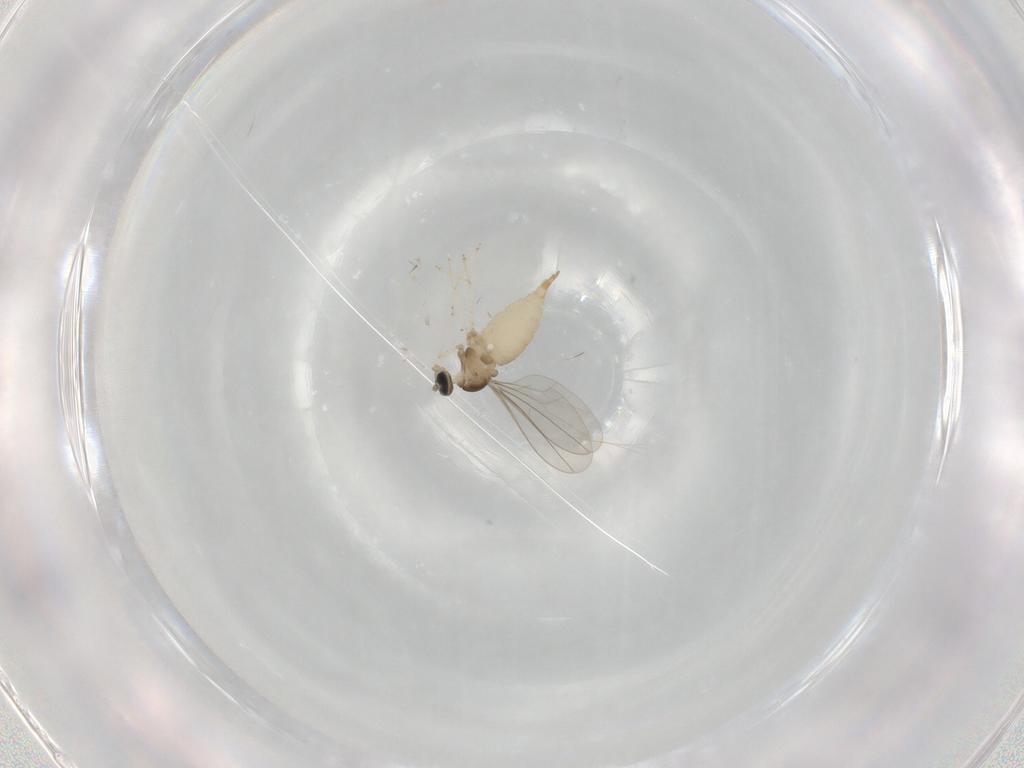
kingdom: Animalia
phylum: Arthropoda
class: Insecta
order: Diptera
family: Cecidomyiidae
